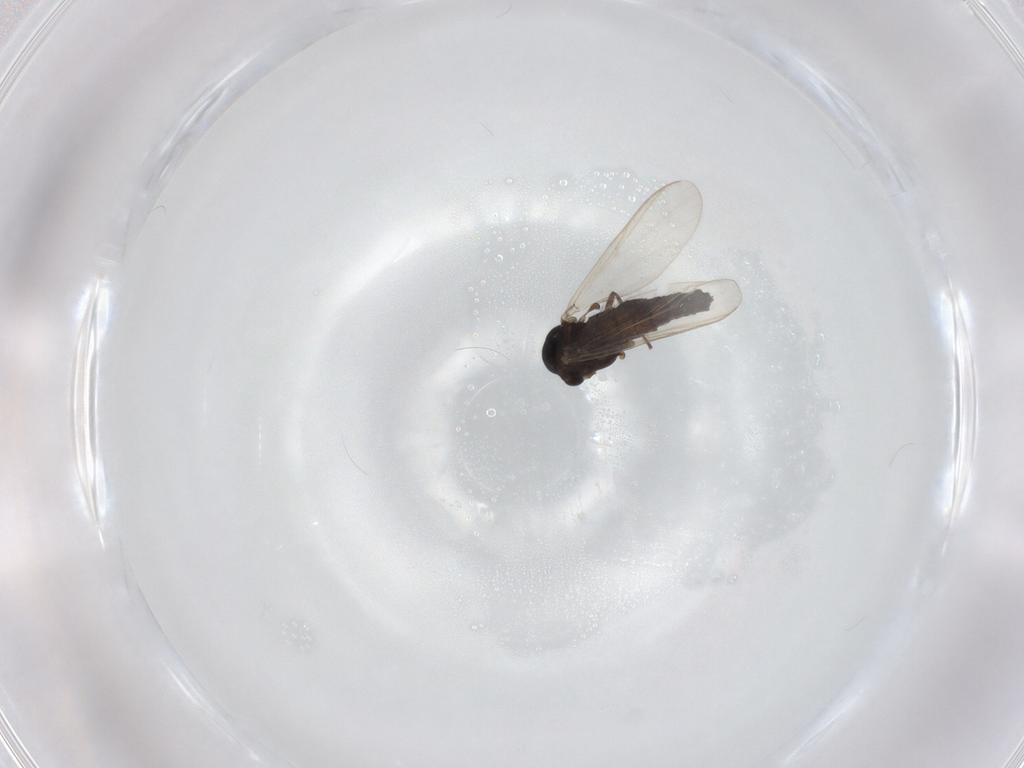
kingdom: Animalia
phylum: Arthropoda
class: Insecta
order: Diptera
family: Chironomidae
